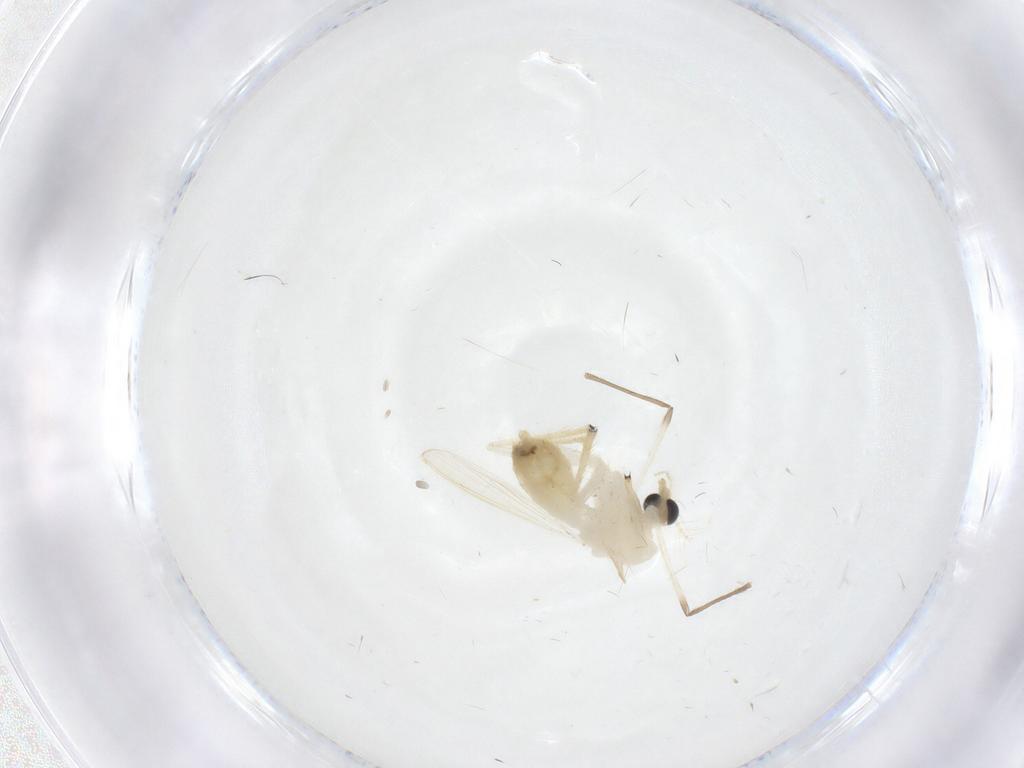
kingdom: Animalia
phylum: Arthropoda
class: Insecta
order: Diptera
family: Chironomidae
